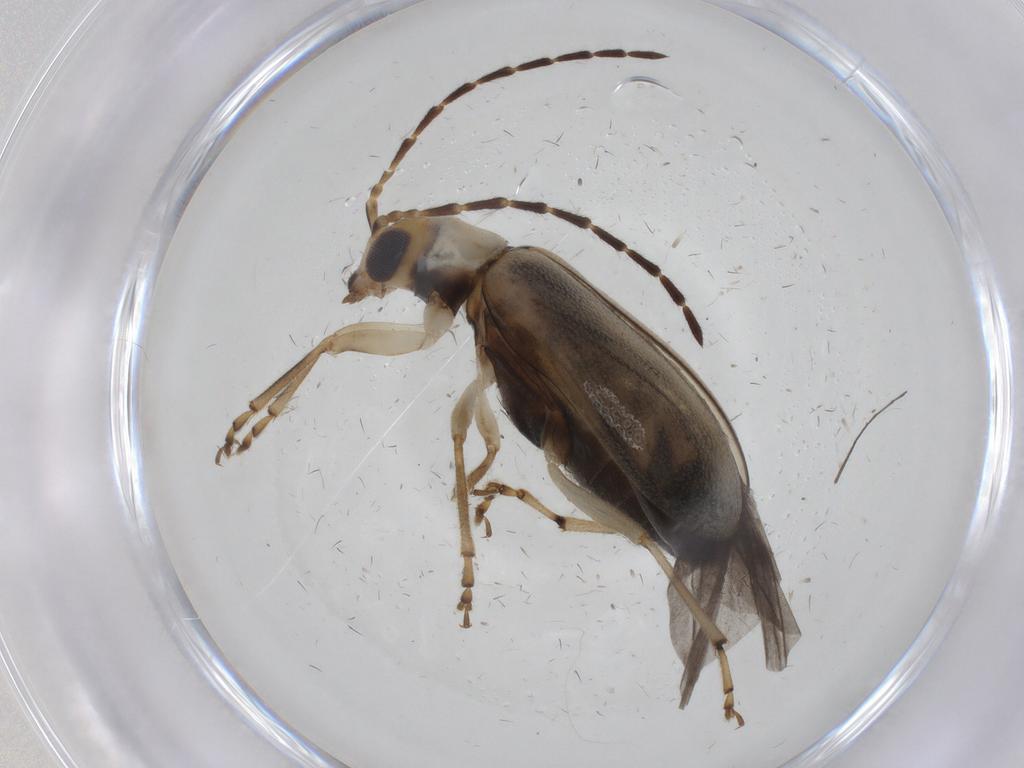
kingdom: Animalia
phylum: Arthropoda
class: Insecta
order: Coleoptera
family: Chrysomelidae
